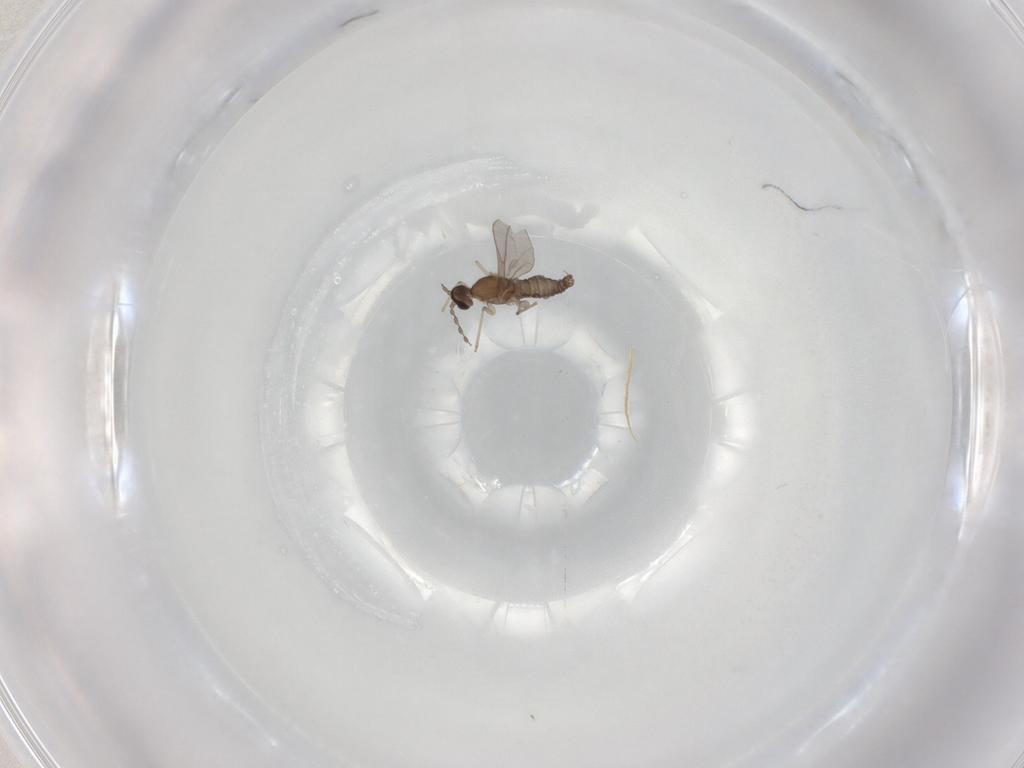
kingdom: Animalia
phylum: Arthropoda
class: Insecta
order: Diptera
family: Cecidomyiidae
